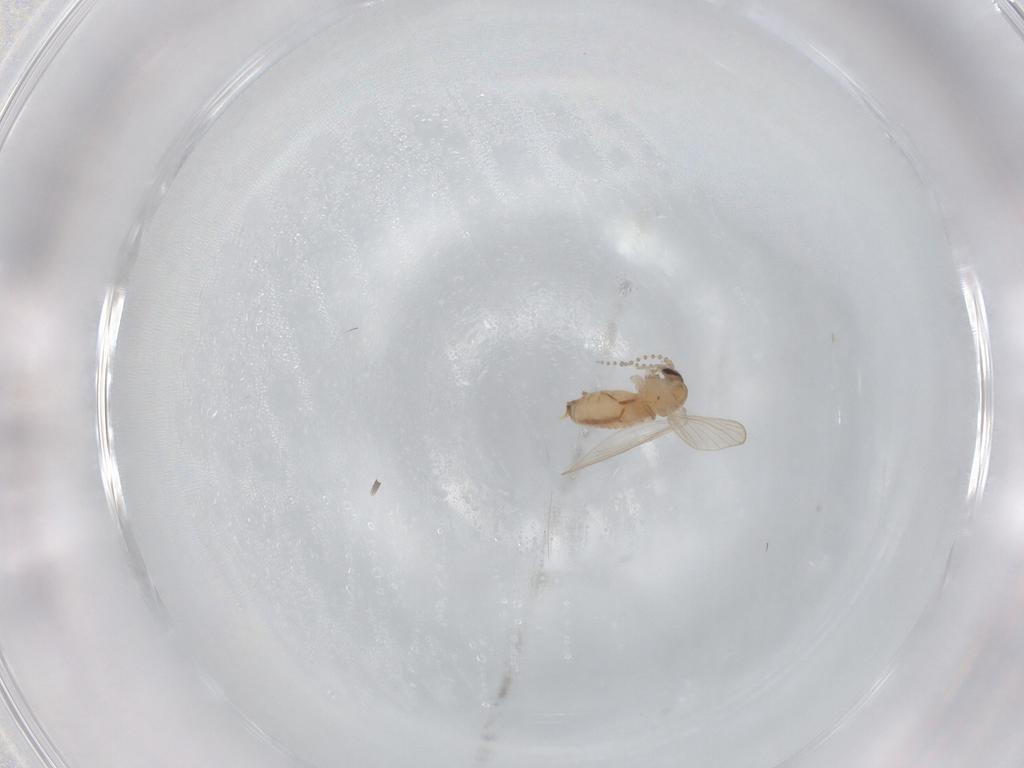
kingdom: Animalia
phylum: Arthropoda
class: Insecta
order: Diptera
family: Psychodidae
